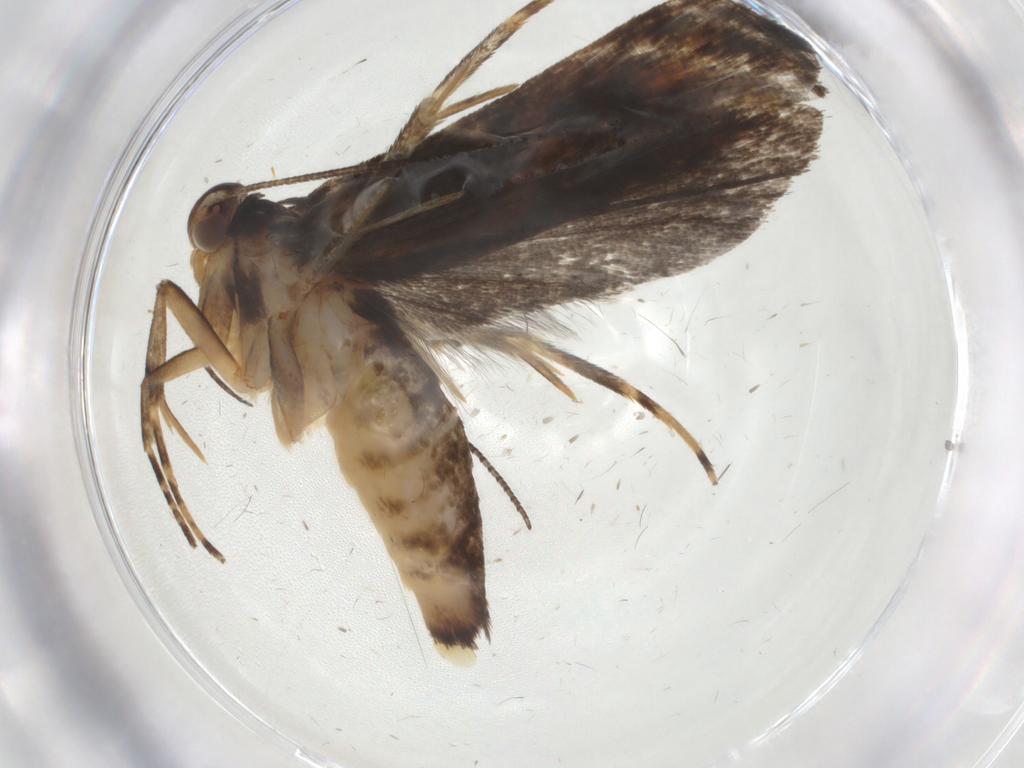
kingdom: Animalia
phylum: Arthropoda
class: Insecta
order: Lepidoptera
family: Crambidae
